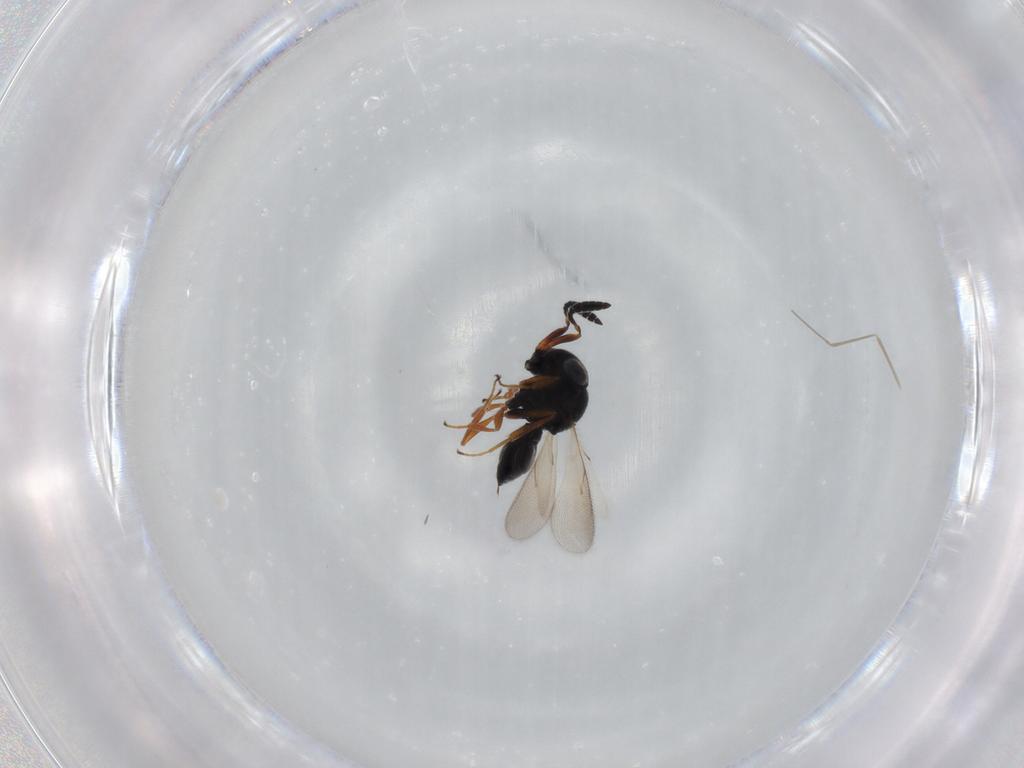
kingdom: Animalia
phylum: Arthropoda
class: Insecta
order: Hymenoptera
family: Scelionidae
